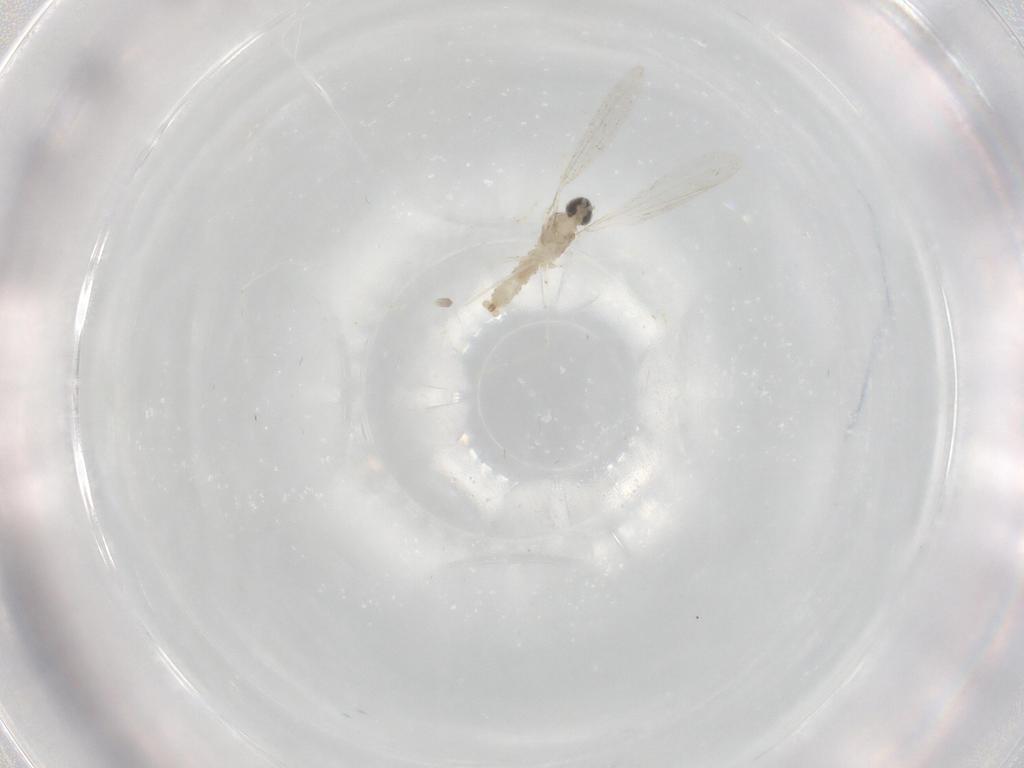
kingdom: Animalia
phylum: Arthropoda
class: Insecta
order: Diptera
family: Cecidomyiidae
